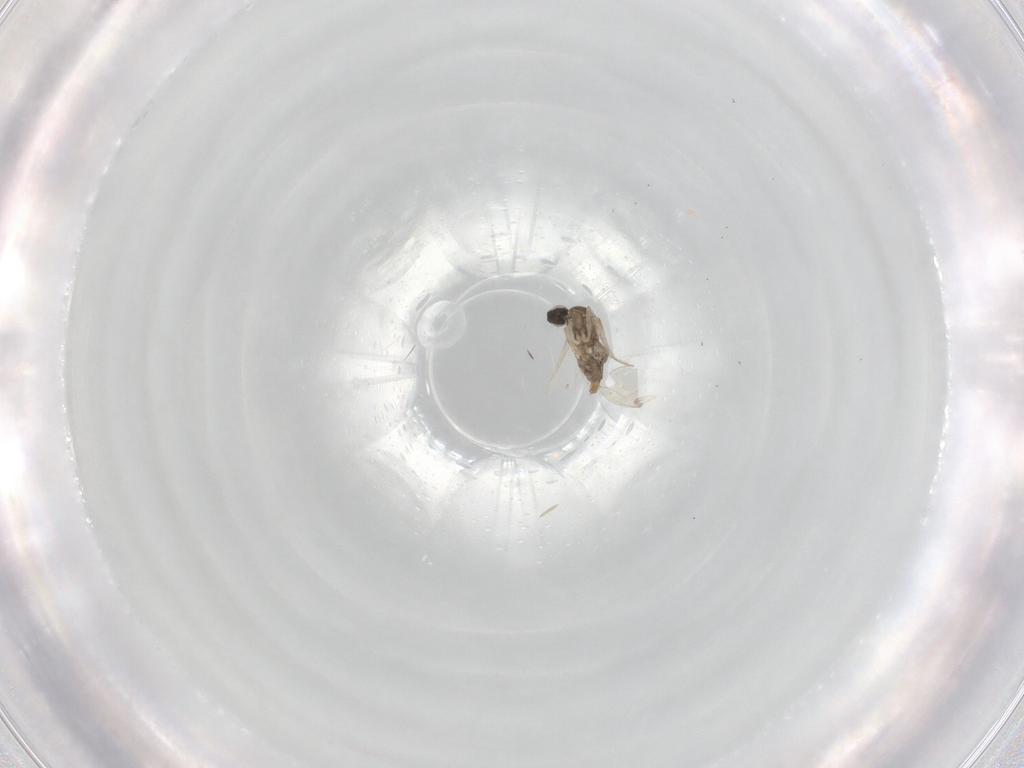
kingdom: Animalia
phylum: Arthropoda
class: Insecta
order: Diptera
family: Cecidomyiidae
